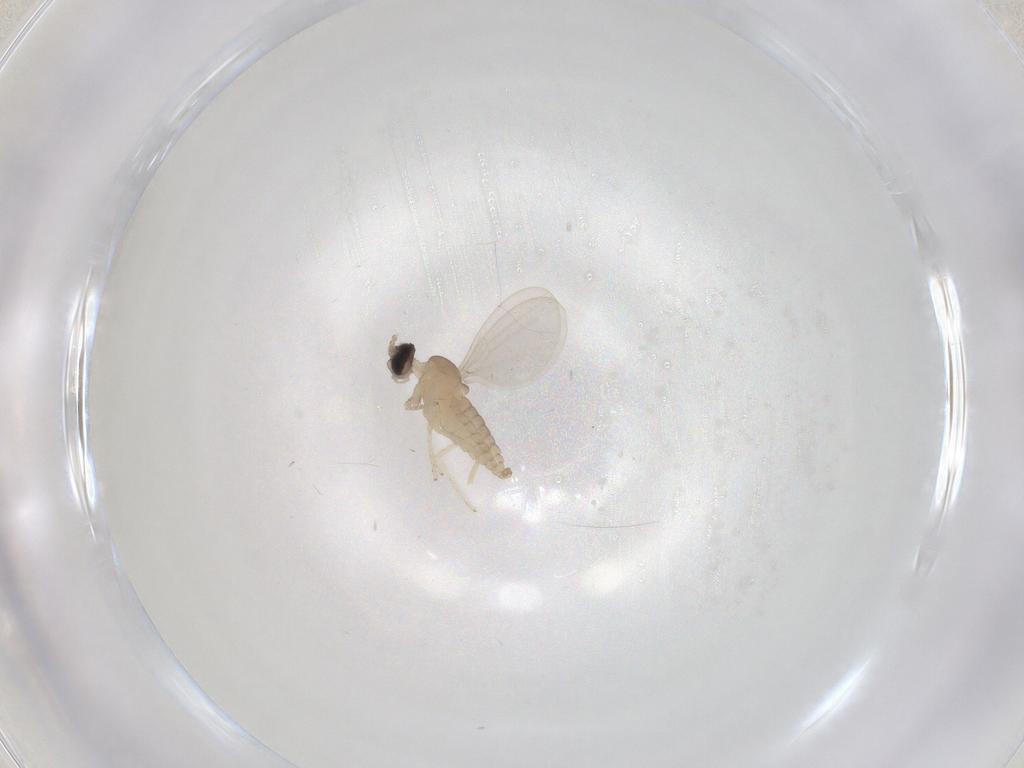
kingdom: Animalia
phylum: Arthropoda
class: Insecta
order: Diptera
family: Cecidomyiidae
